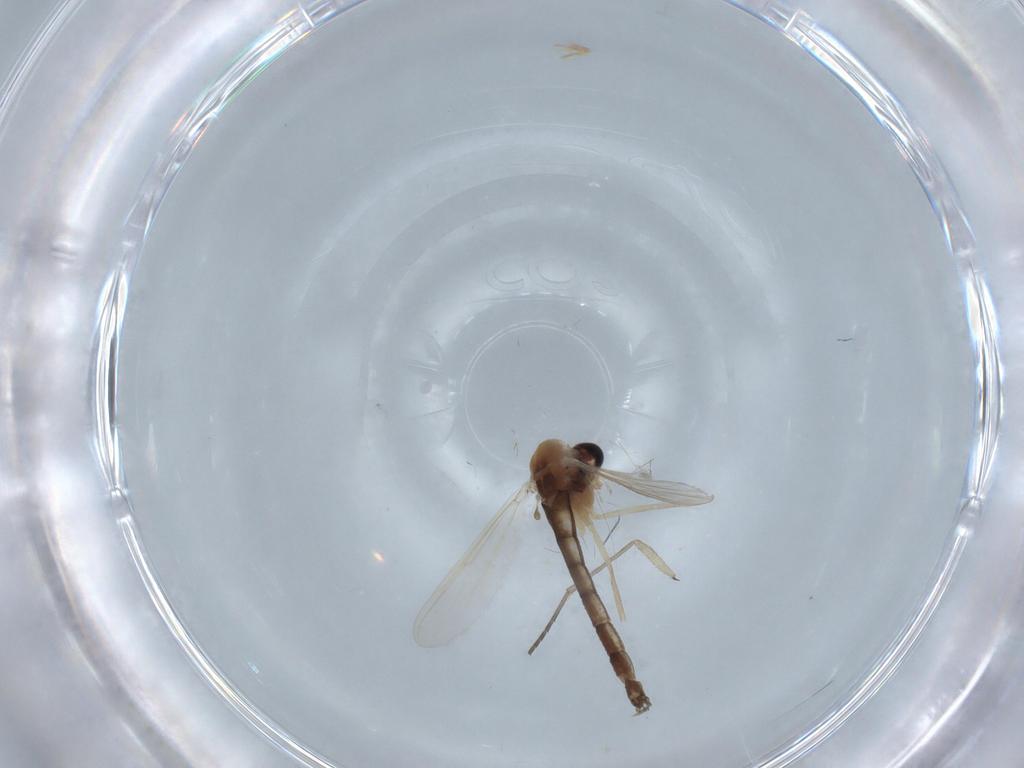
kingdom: Animalia
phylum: Arthropoda
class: Insecta
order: Diptera
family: Chironomidae
